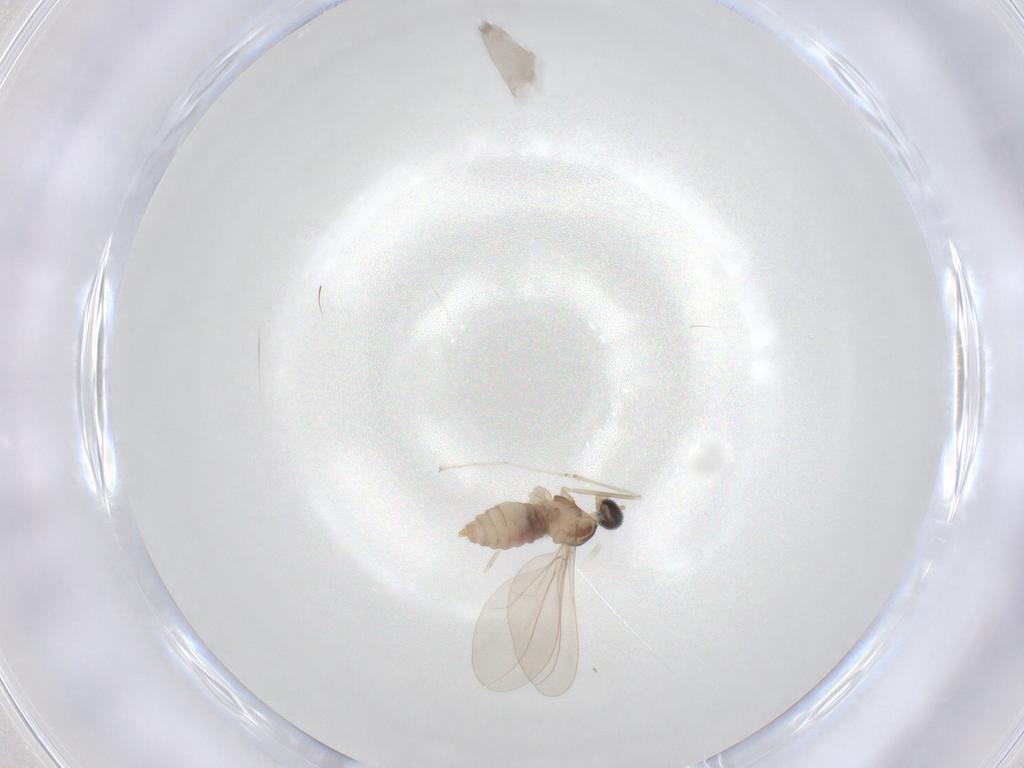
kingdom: Animalia
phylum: Arthropoda
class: Insecta
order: Diptera
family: Cecidomyiidae
